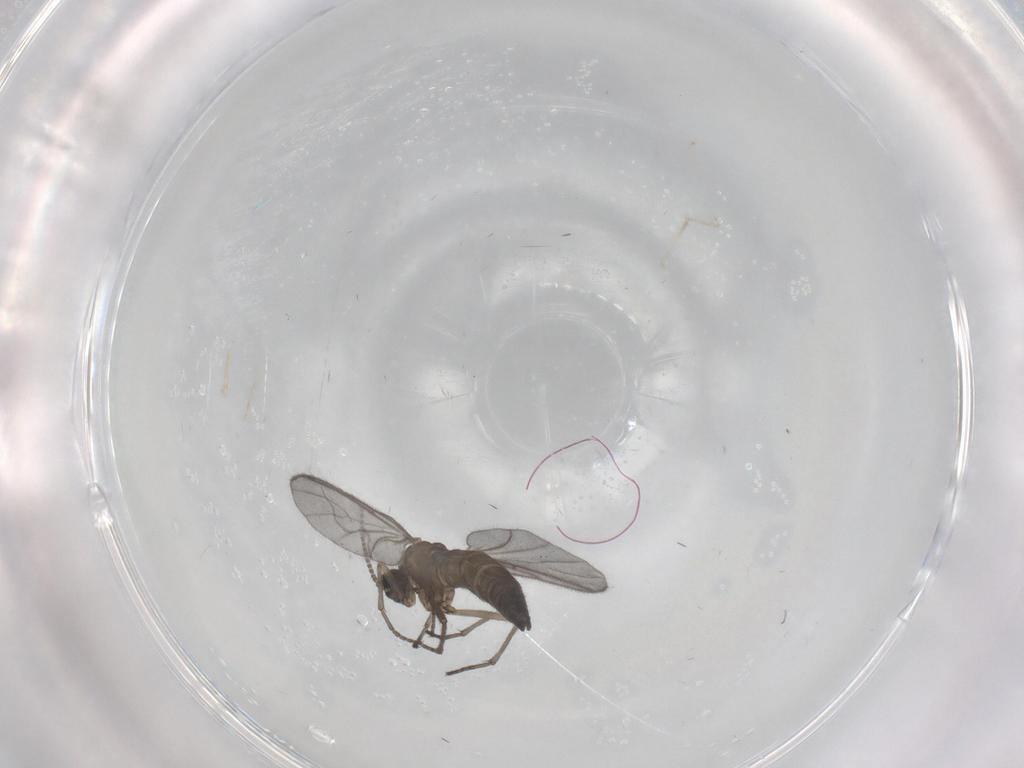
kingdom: Animalia
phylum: Arthropoda
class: Insecta
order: Diptera
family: Sciaridae
